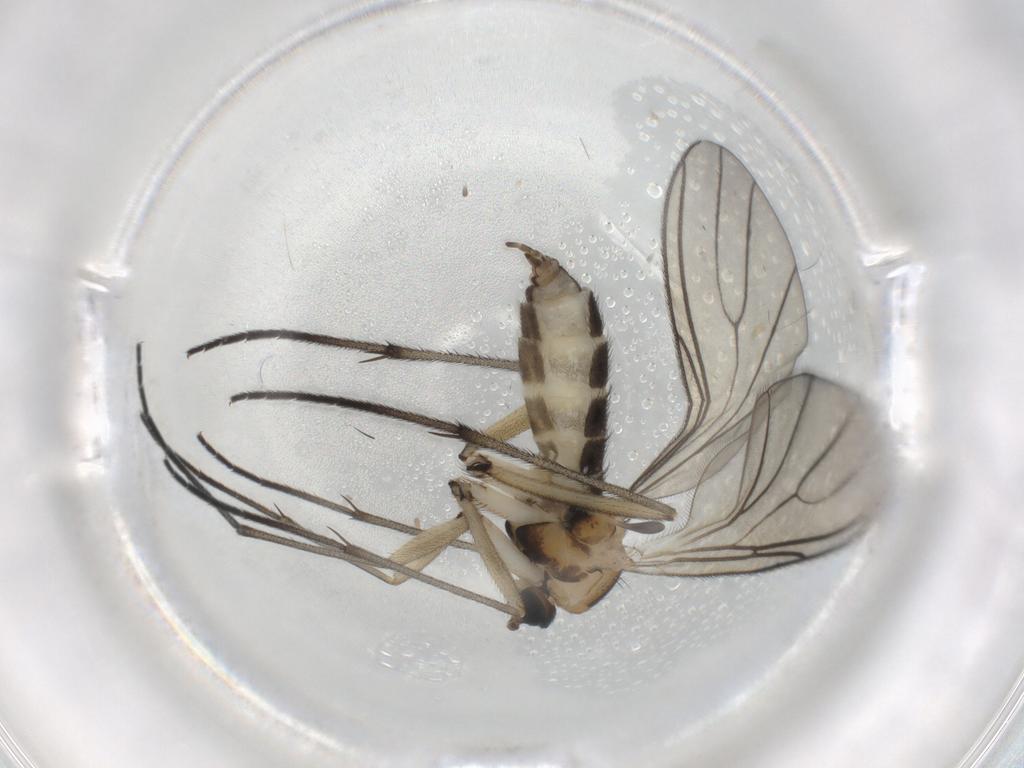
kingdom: Animalia
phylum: Arthropoda
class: Insecta
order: Diptera
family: Sciaridae
